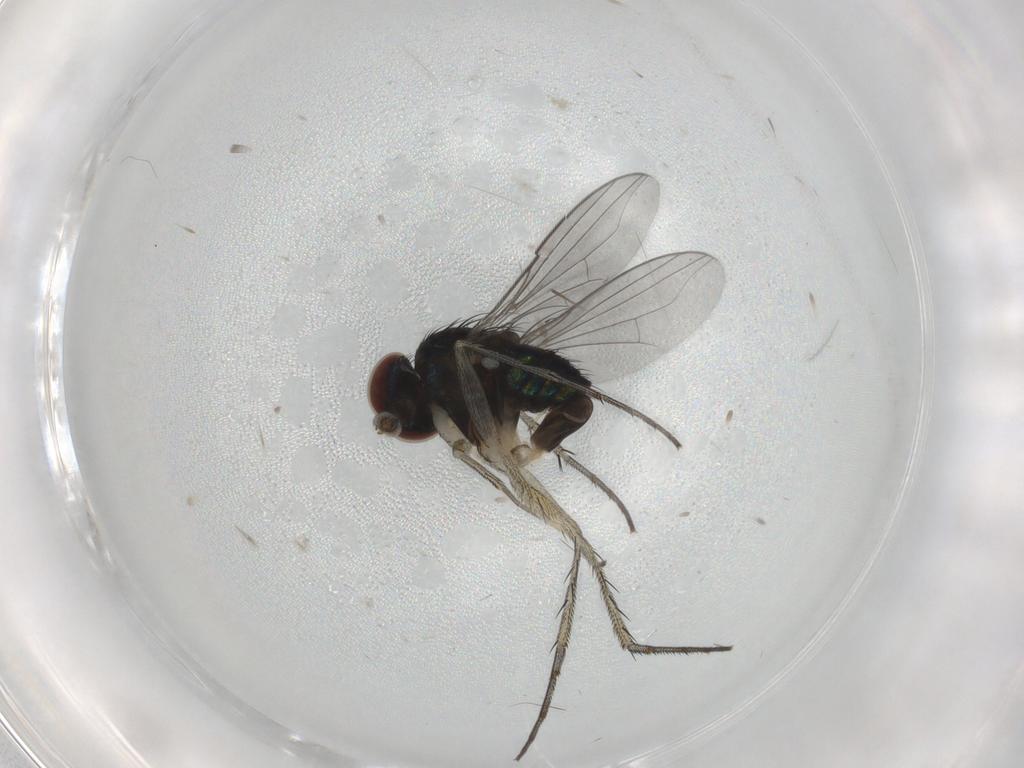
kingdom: Animalia
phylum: Arthropoda
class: Insecta
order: Diptera
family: Dolichopodidae
